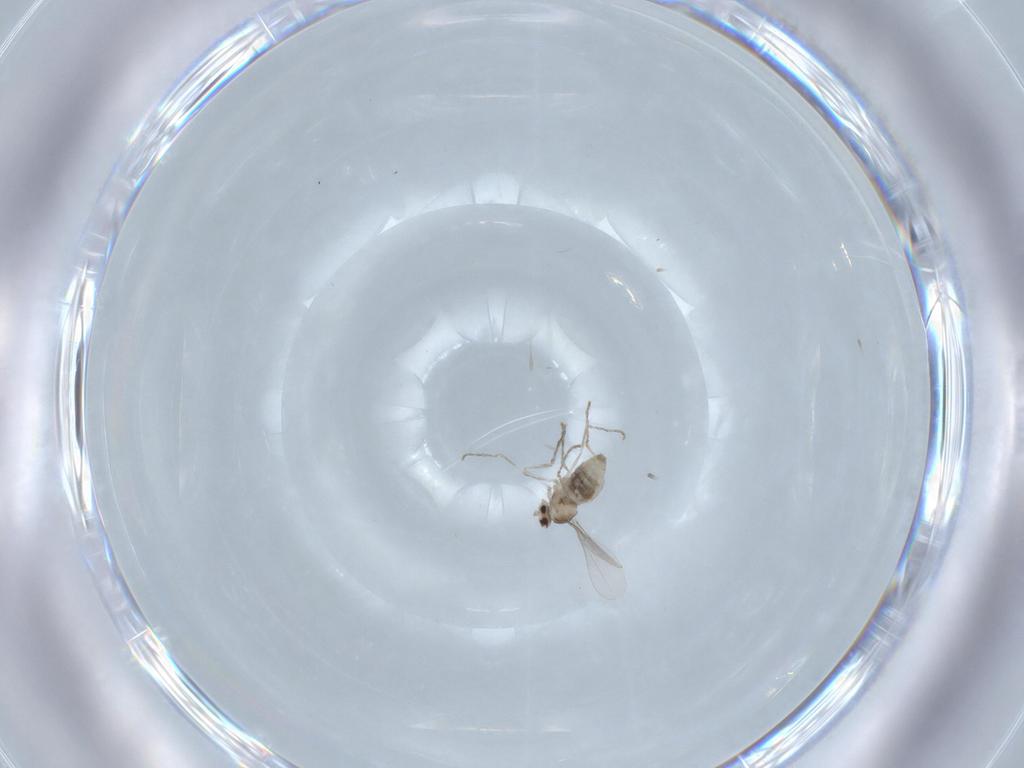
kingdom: Animalia
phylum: Arthropoda
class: Insecta
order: Diptera
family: Cecidomyiidae
